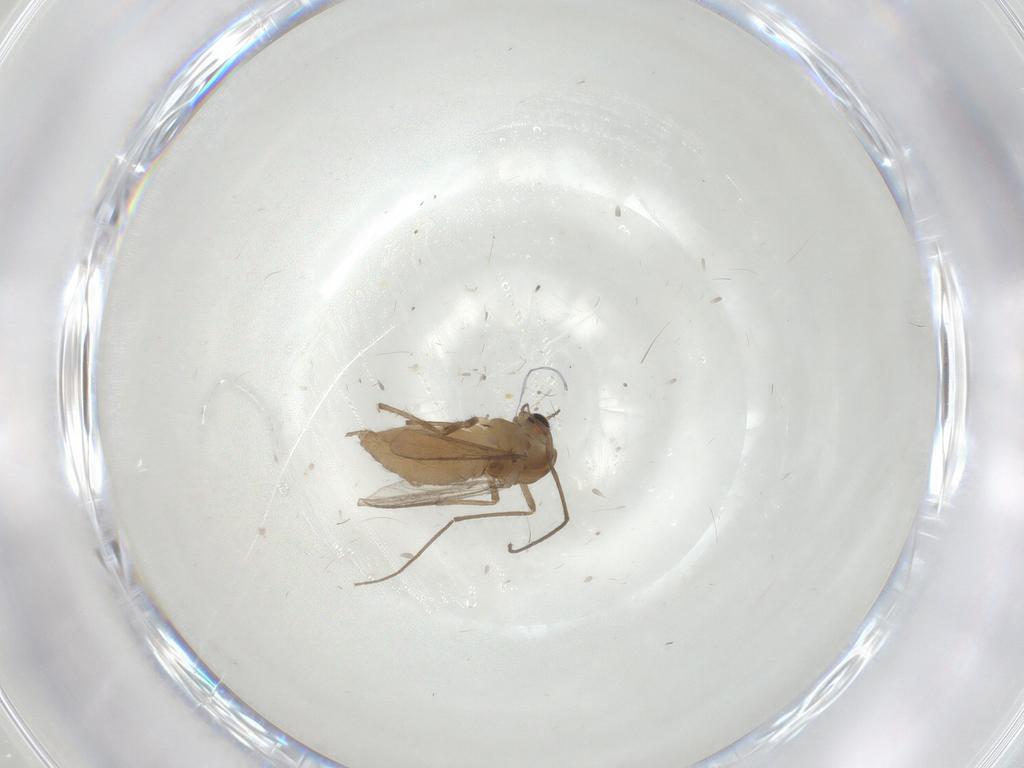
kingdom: Animalia
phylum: Arthropoda
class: Insecta
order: Diptera
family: Chironomidae
